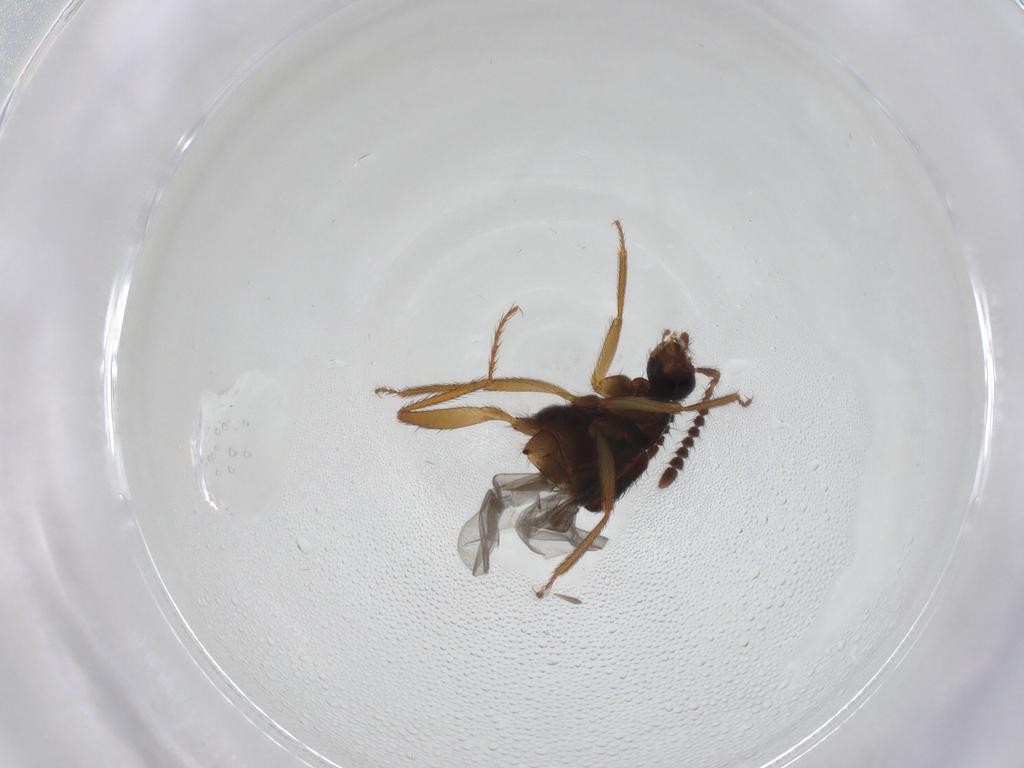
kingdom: Animalia
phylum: Arthropoda
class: Insecta
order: Coleoptera
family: Staphylinidae
